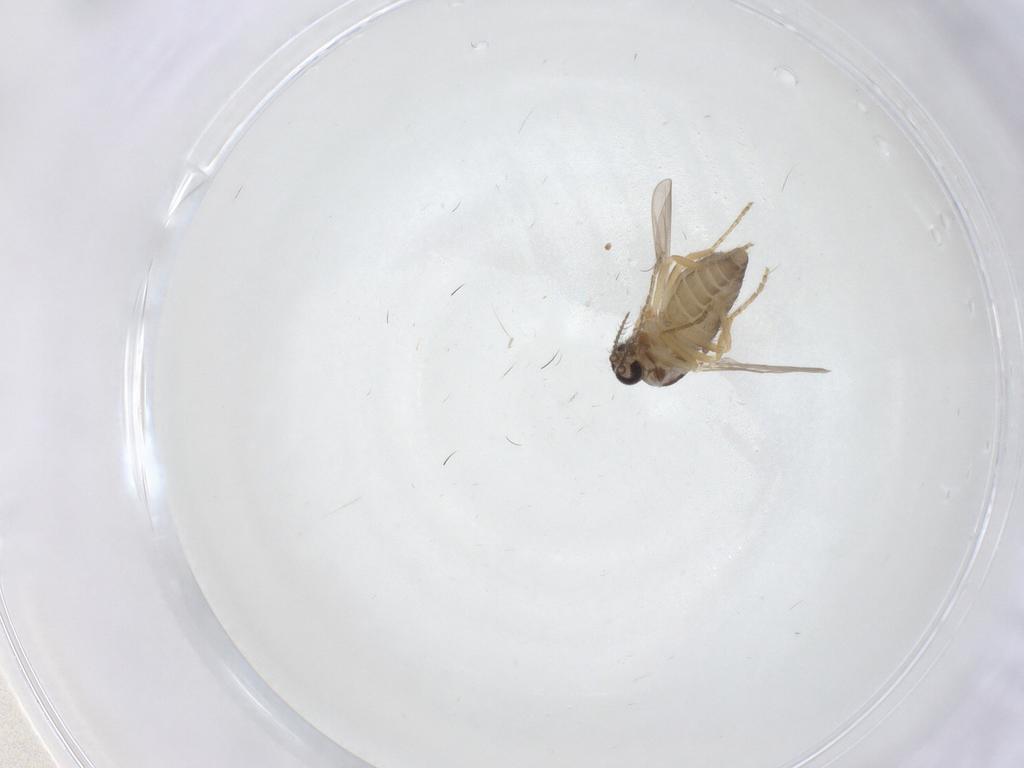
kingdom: Animalia
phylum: Arthropoda
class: Insecta
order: Diptera
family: Ceratopogonidae
